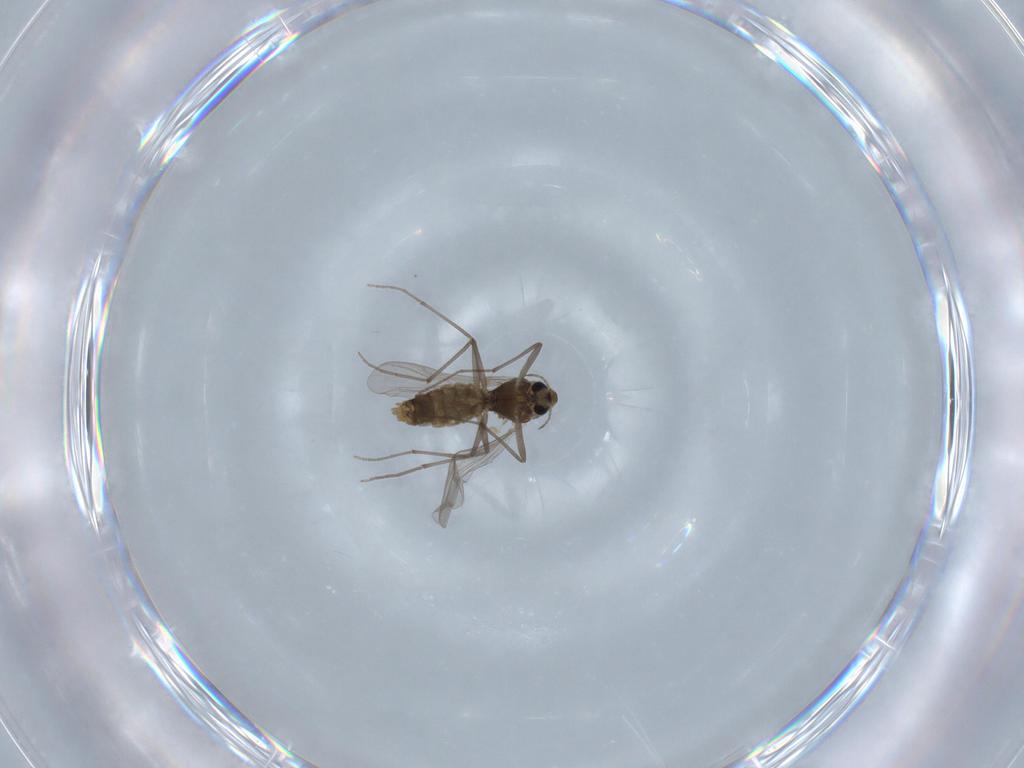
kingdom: Animalia
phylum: Arthropoda
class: Insecta
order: Diptera
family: Chironomidae
